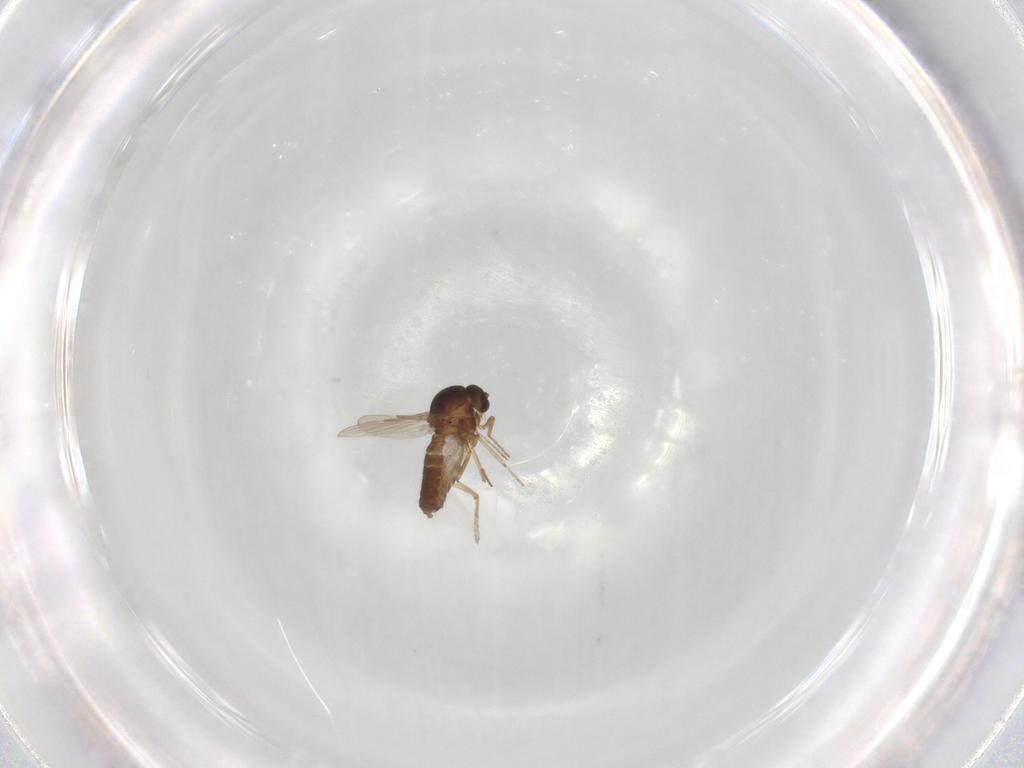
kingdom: Animalia
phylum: Arthropoda
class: Insecta
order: Diptera
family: Ceratopogonidae
